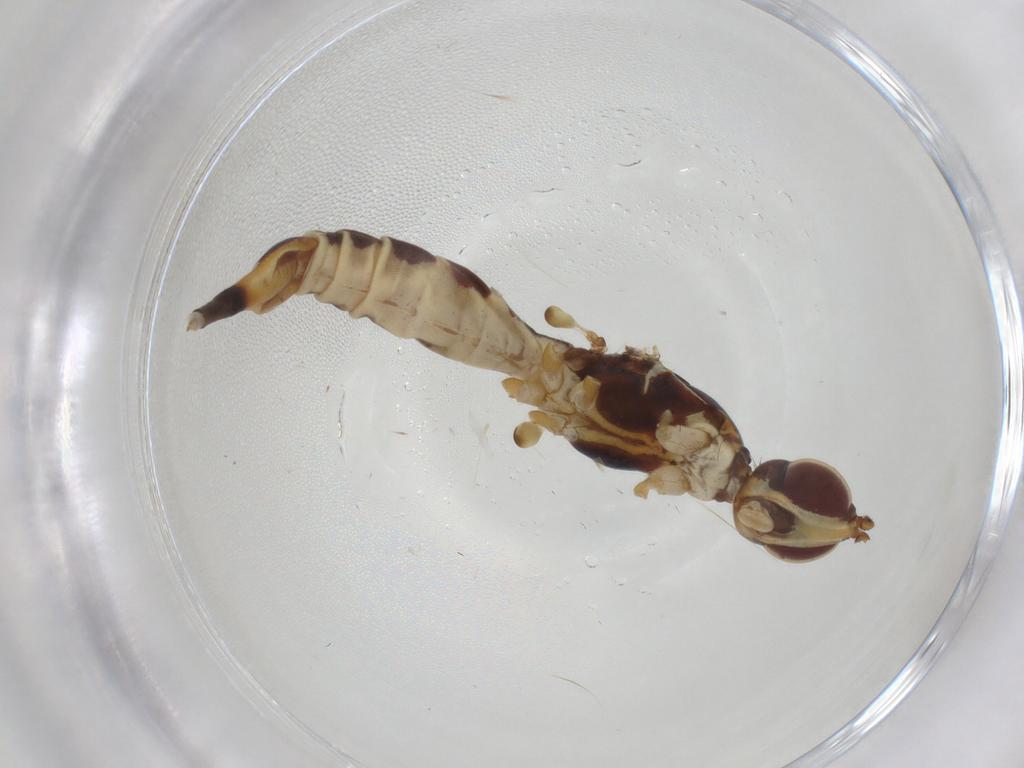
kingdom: Animalia
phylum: Arthropoda
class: Insecta
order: Diptera
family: Micropezidae
